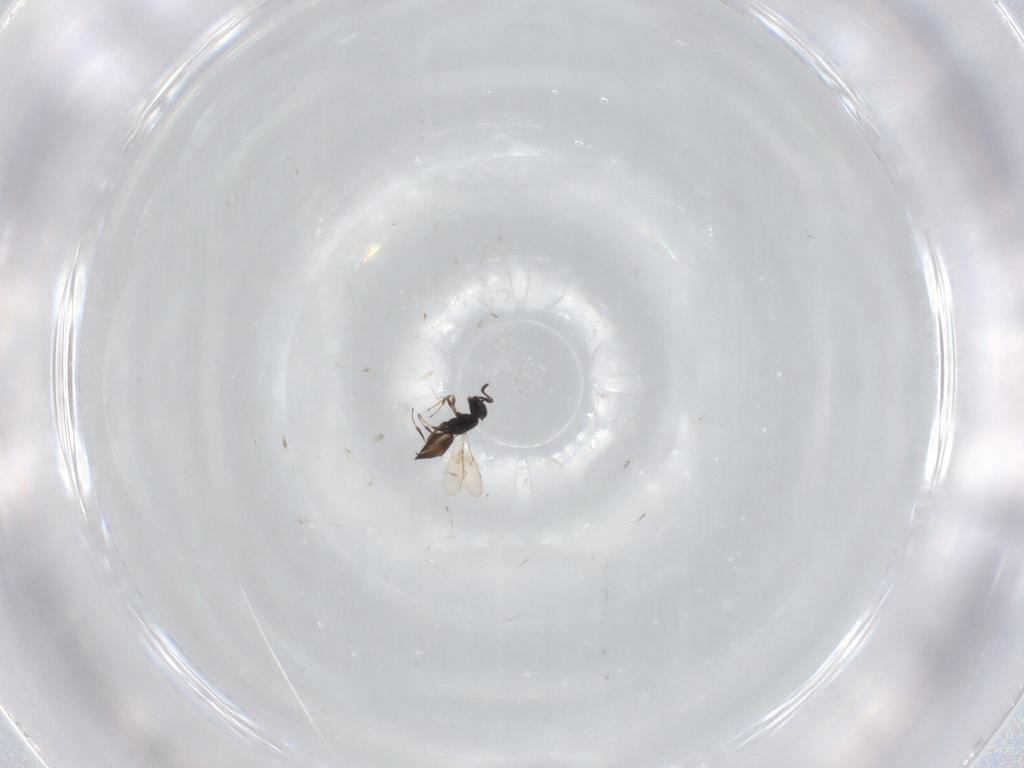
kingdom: Animalia
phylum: Arthropoda
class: Insecta
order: Hymenoptera
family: Scelionidae
